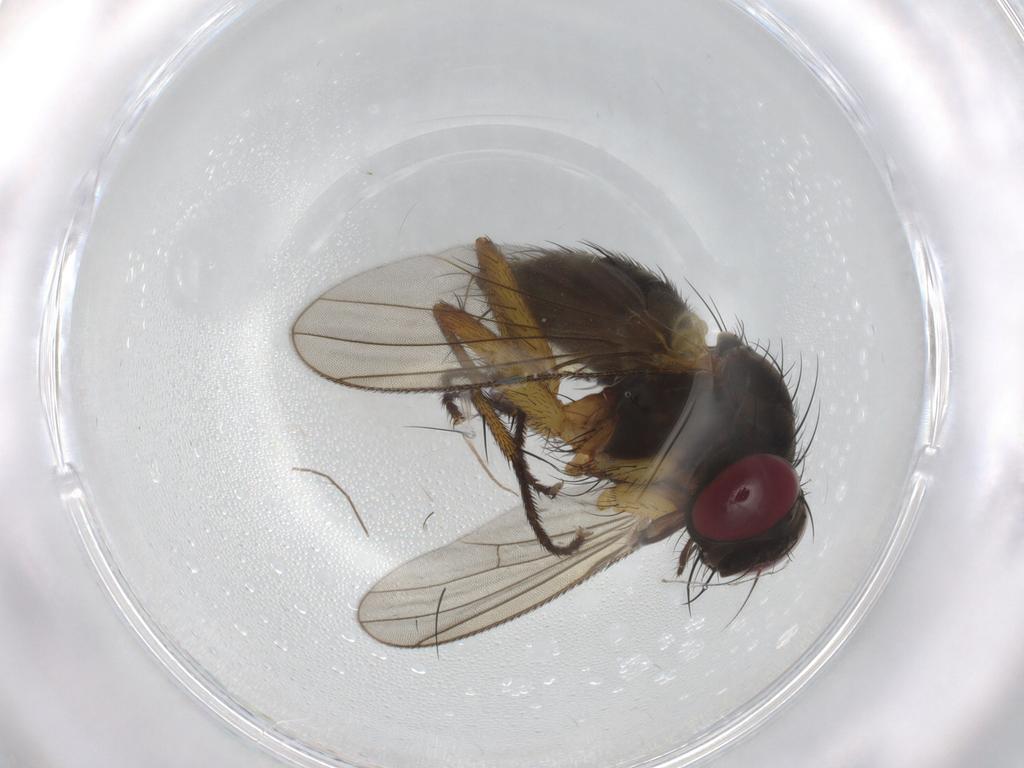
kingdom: Animalia
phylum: Arthropoda
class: Insecta
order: Diptera
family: Muscidae
